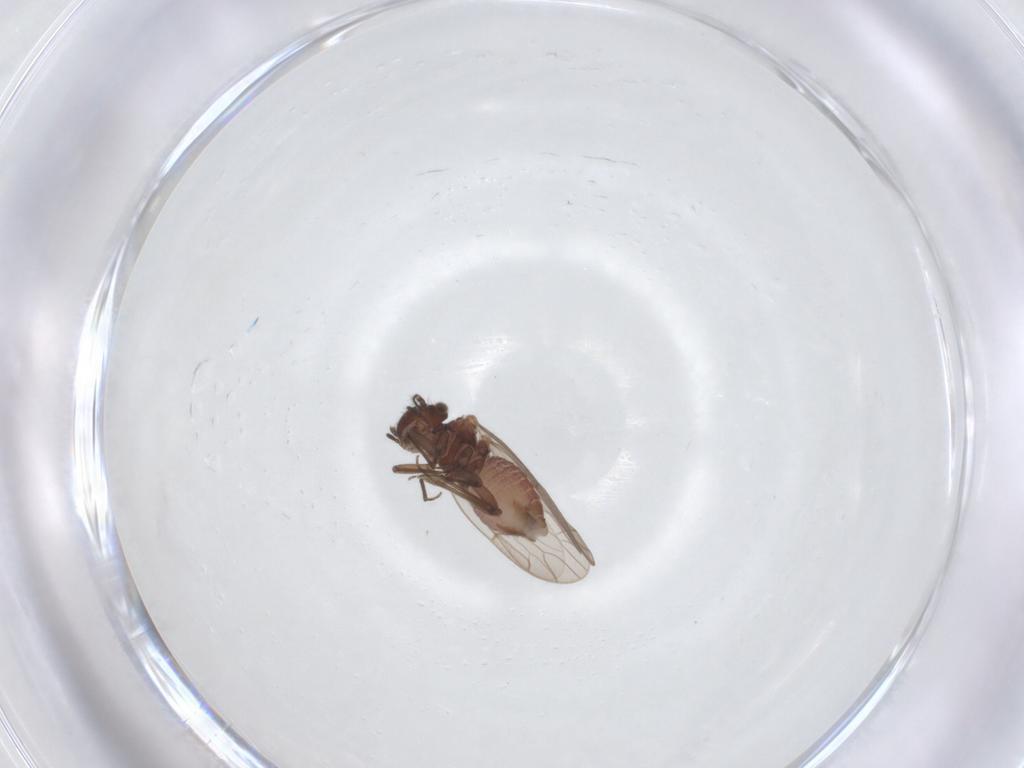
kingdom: Animalia
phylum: Arthropoda
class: Insecta
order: Psocodea
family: Ectopsocidae
